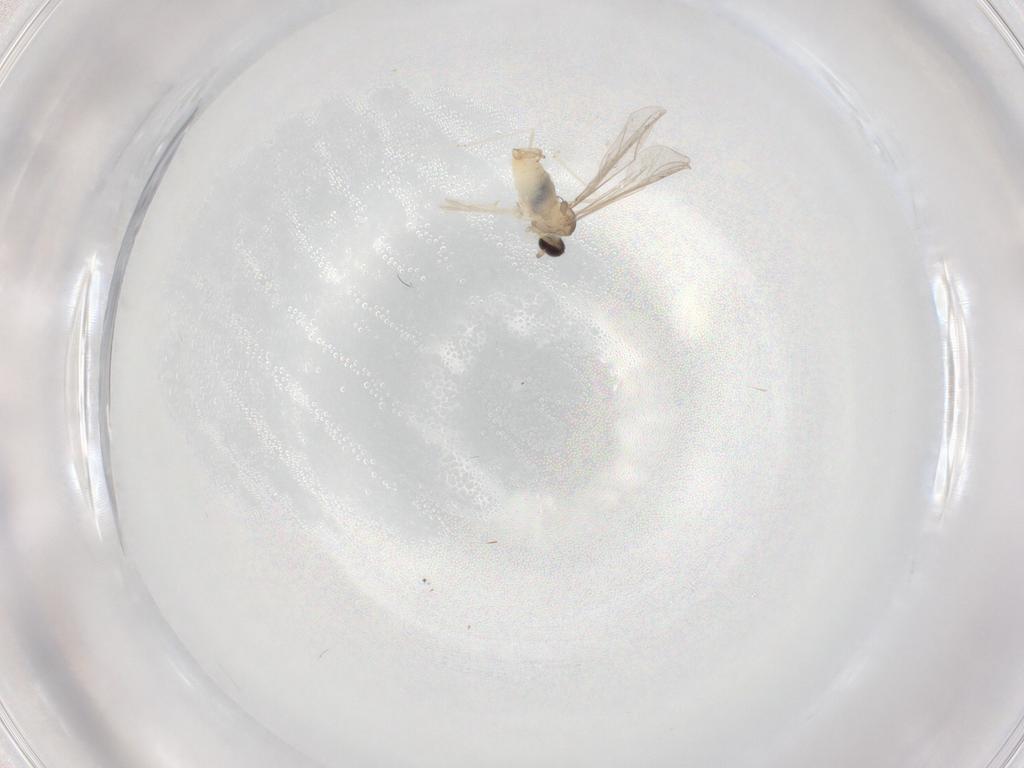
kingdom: Animalia
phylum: Arthropoda
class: Insecta
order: Diptera
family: Cecidomyiidae
